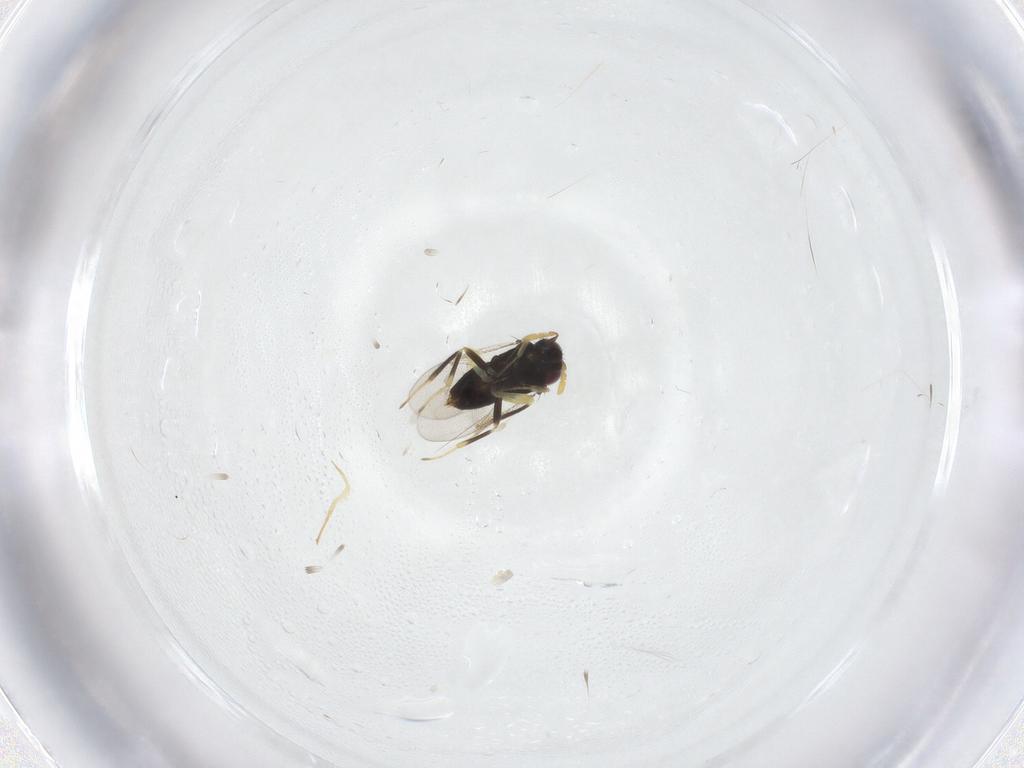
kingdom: Animalia
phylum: Arthropoda
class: Insecta
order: Hymenoptera
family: Aphelinidae
